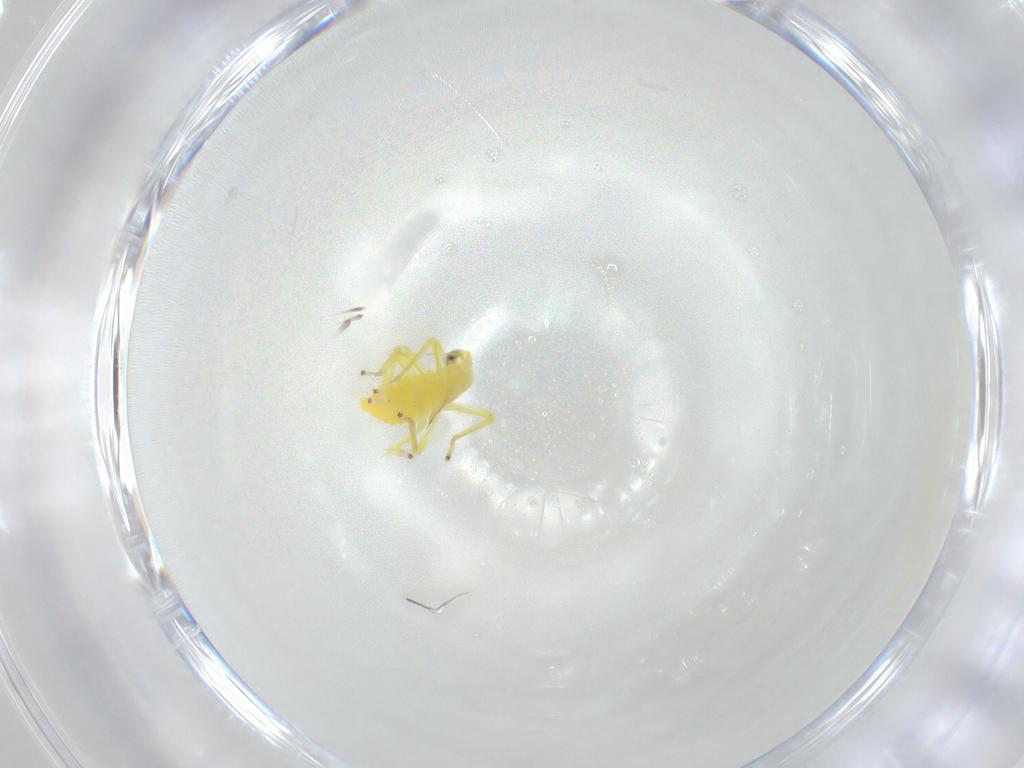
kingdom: Animalia
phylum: Arthropoda
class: Insecta
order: Hemiptera
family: Cicadellidae
